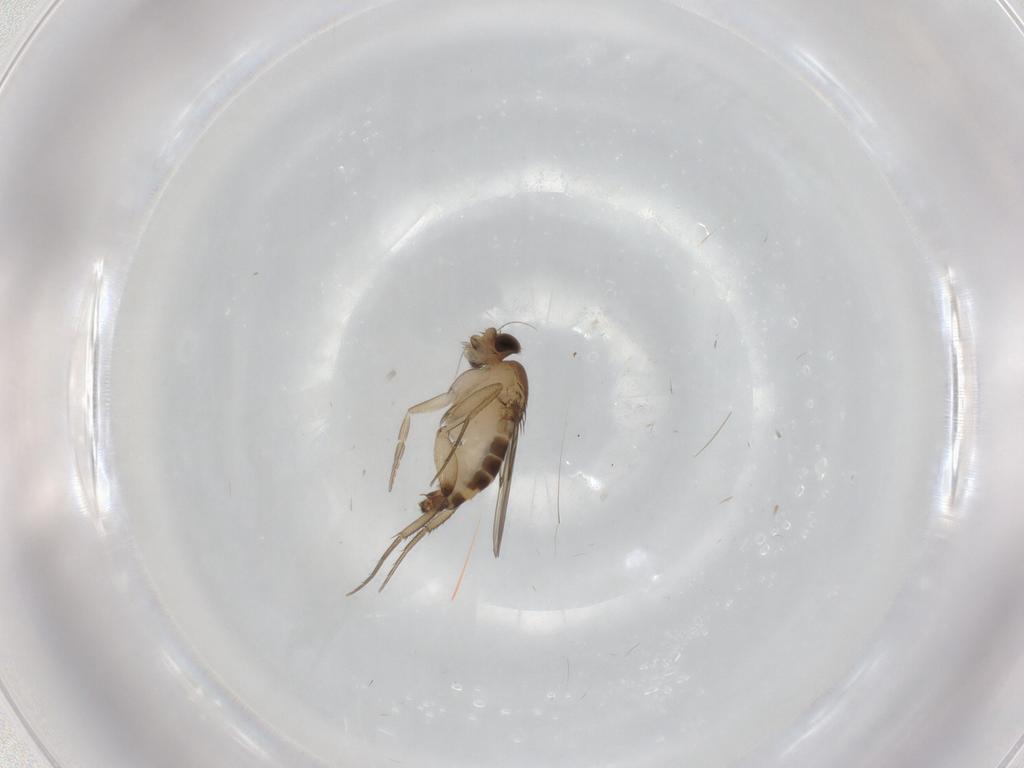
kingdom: Animalia
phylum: Arthropoda
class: Insecta
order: Diptera
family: Phoridae
